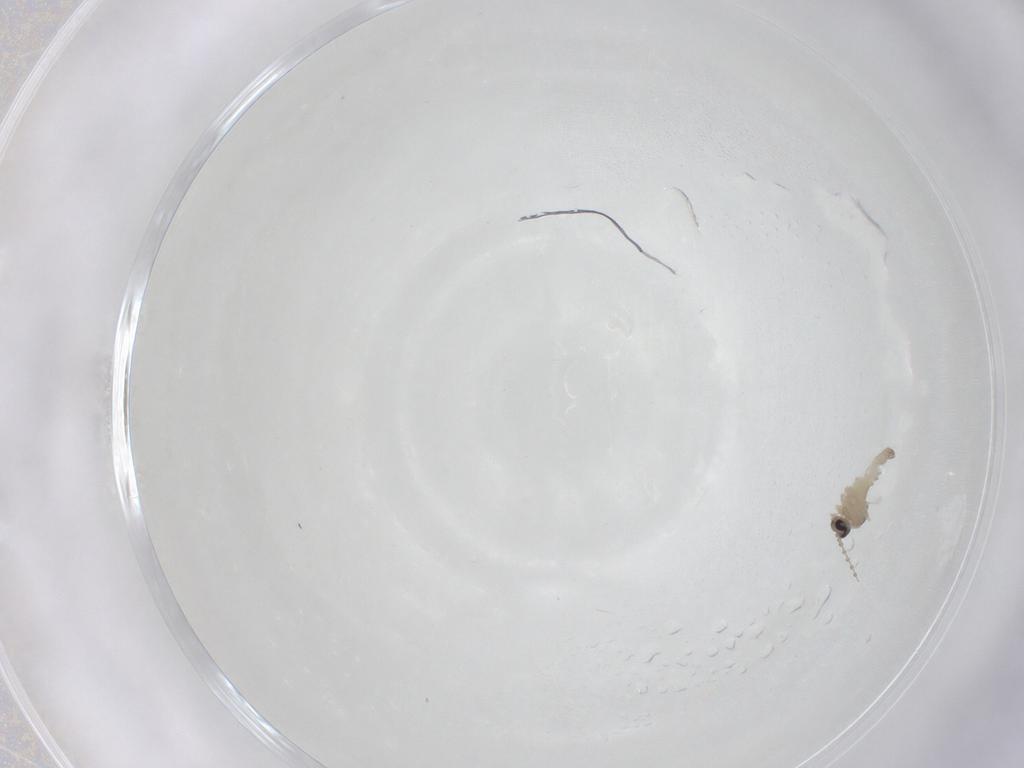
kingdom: Animalia
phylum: Arthropoda
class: Insecta
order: Diptera
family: Cecidomyiidae
